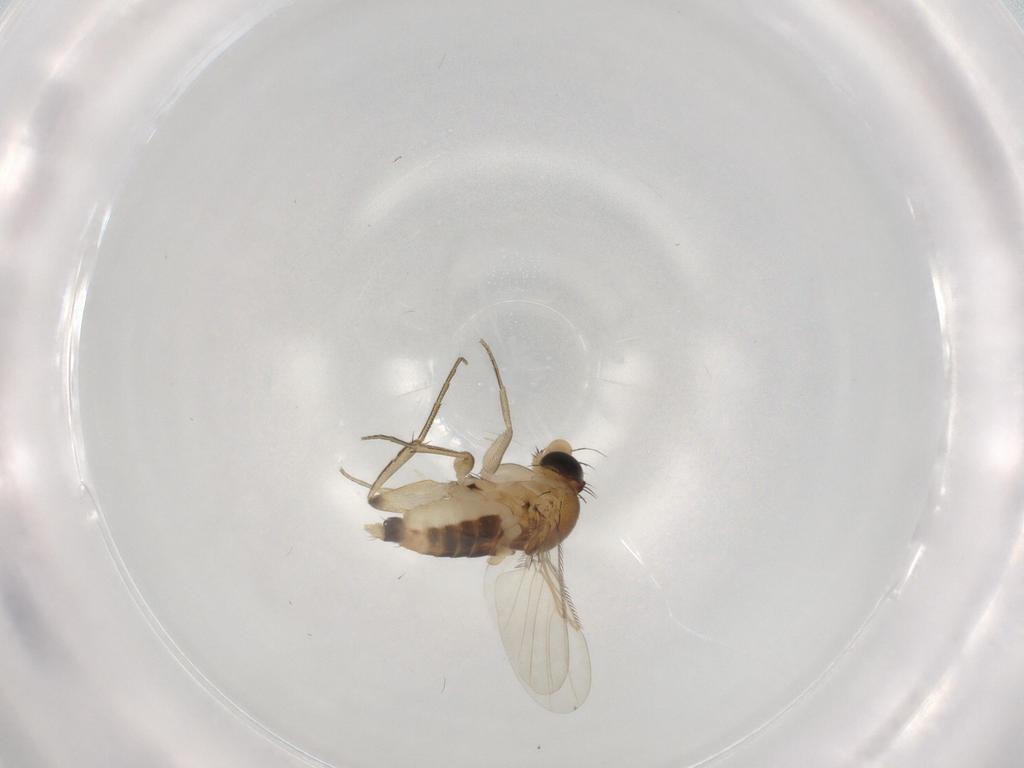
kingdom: Animalia
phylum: Arthropoda
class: Insecta
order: Diptera
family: Phoridae
